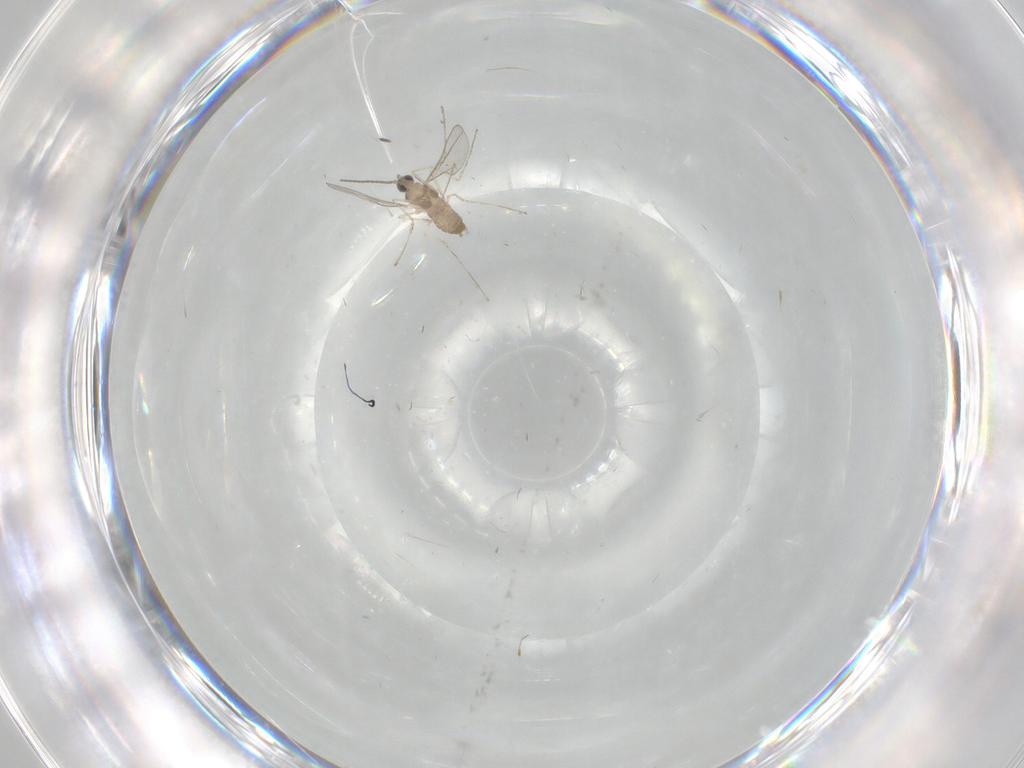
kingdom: Animalia
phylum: Arthropoda
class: Insecta
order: Diptera
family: Cecidomyiidae
